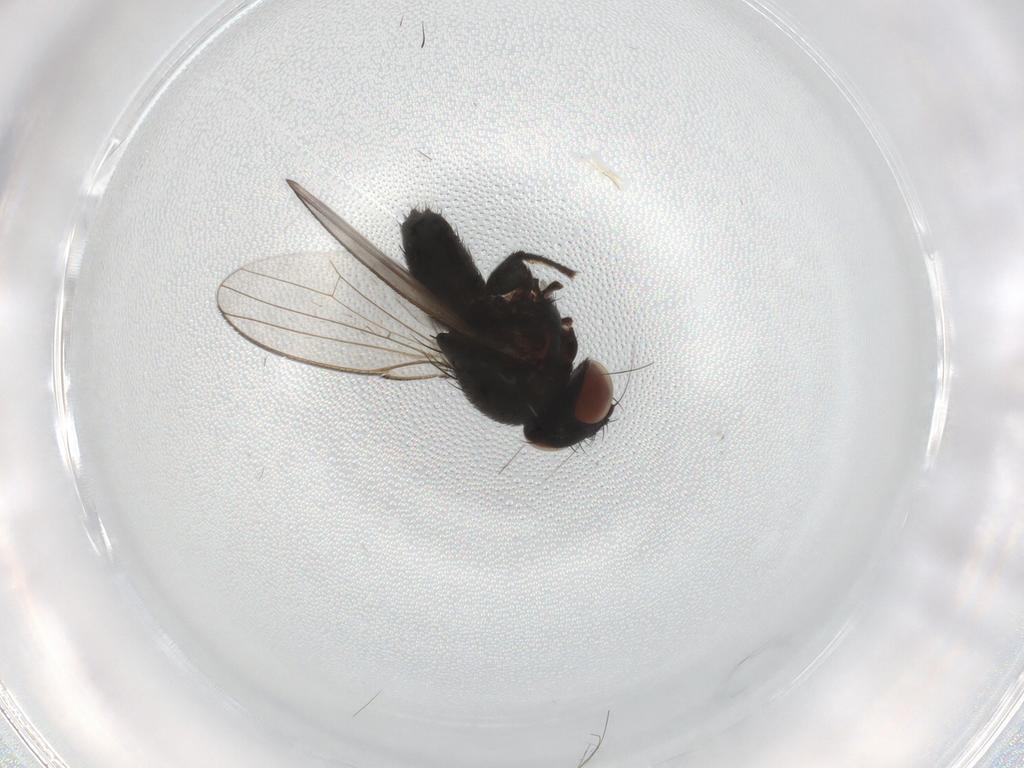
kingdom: Animalia
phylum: Arthropoda
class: Insecta
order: Diptera
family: Milichiidae
